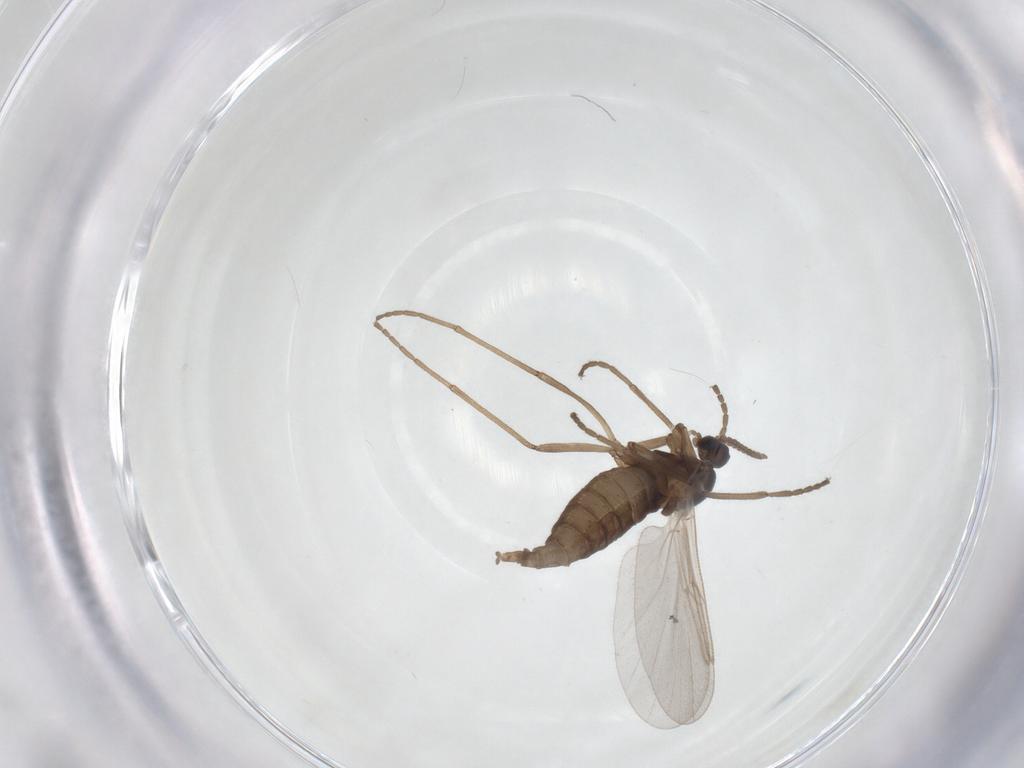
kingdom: Animalia
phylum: Arthropoda
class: Insecta
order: Diptera
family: Cecidomyiidae
